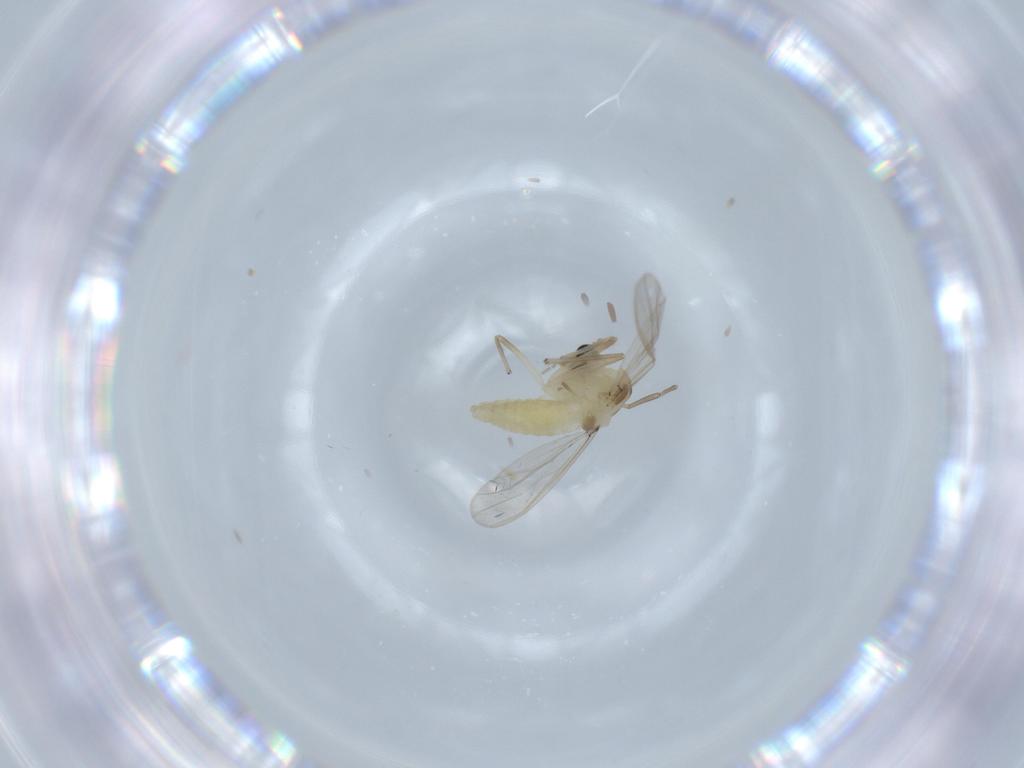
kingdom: Animalia
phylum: Arthropoda
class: Insecta
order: Diptera
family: Chironomidae
